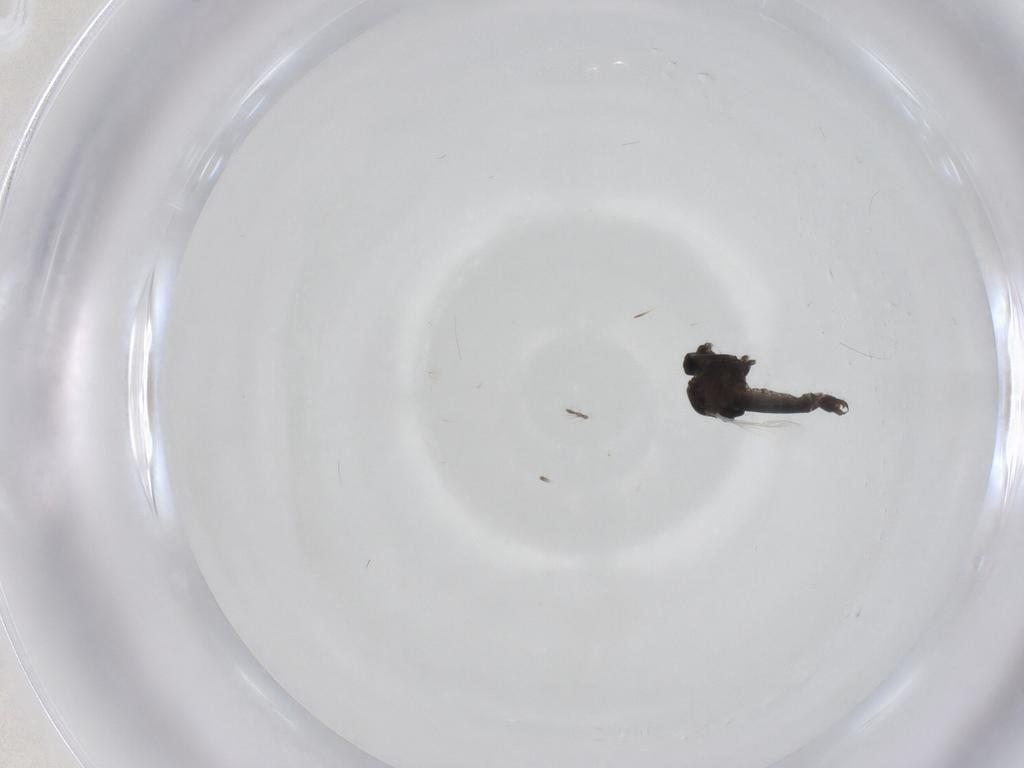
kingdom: Animalia
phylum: Arthropoda
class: Insecta
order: Diptera
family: Chironomidae
